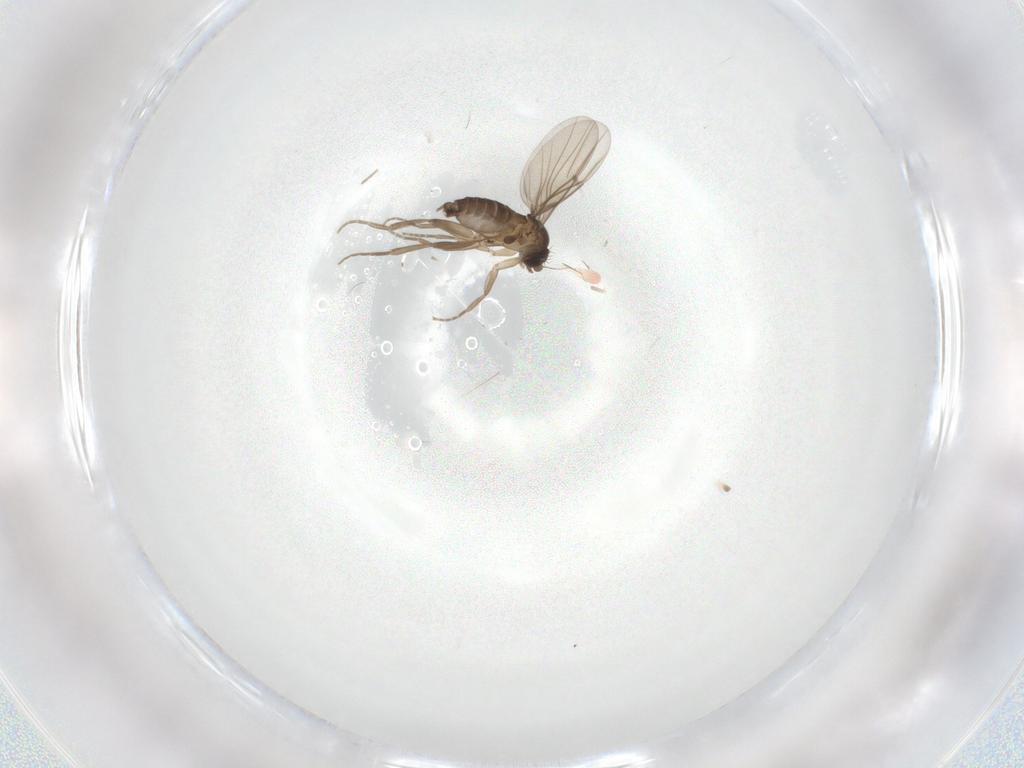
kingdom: Animalia
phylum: Arthropoda
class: Insecta
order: Diptera
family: Phoridae
